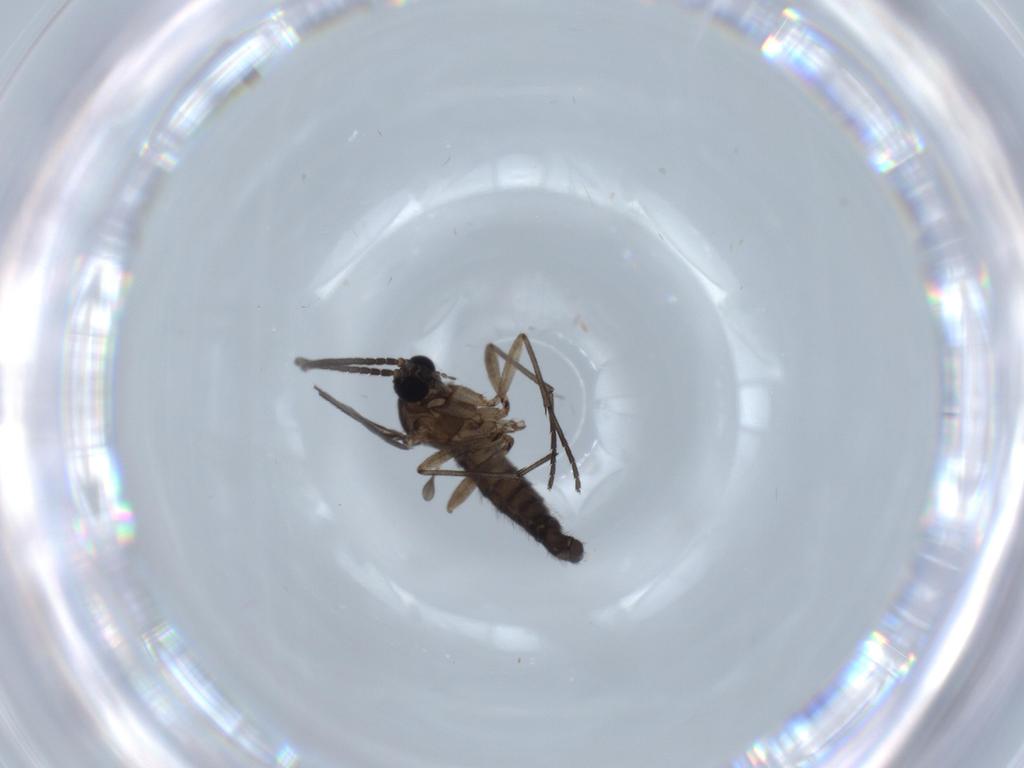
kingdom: Animalia
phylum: Arthropoda
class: Insecta
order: Diptera
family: Sciaridae
